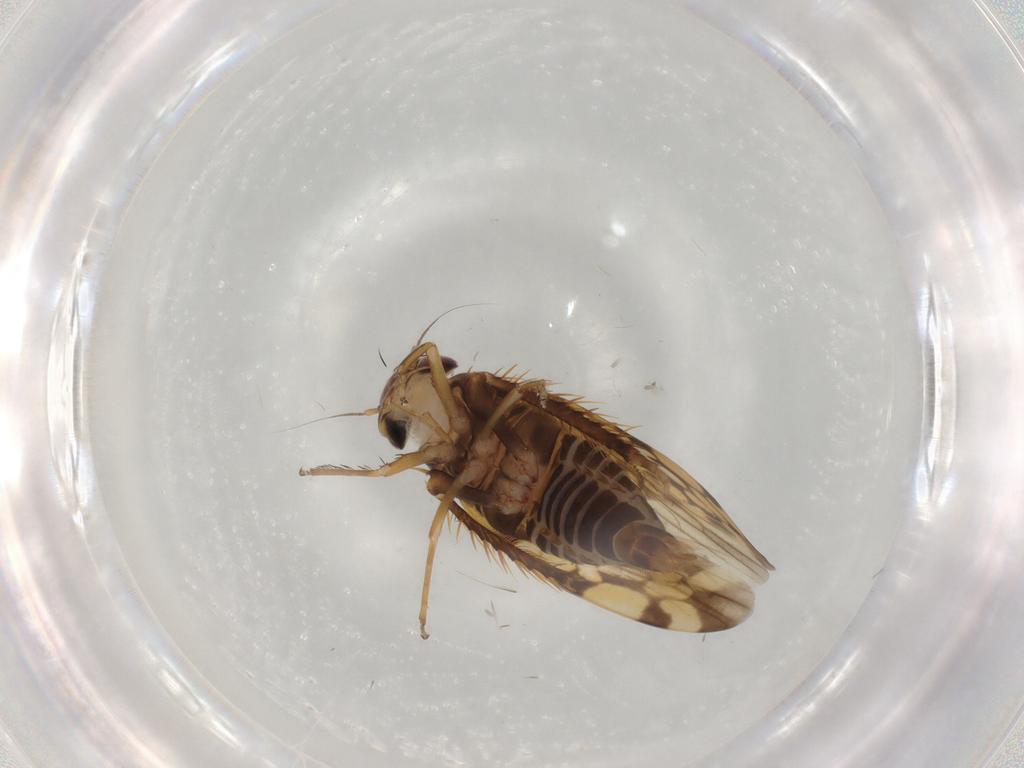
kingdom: Animalia
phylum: Arthropoda
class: Insecta
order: Hemiptera
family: Cicadellidae
